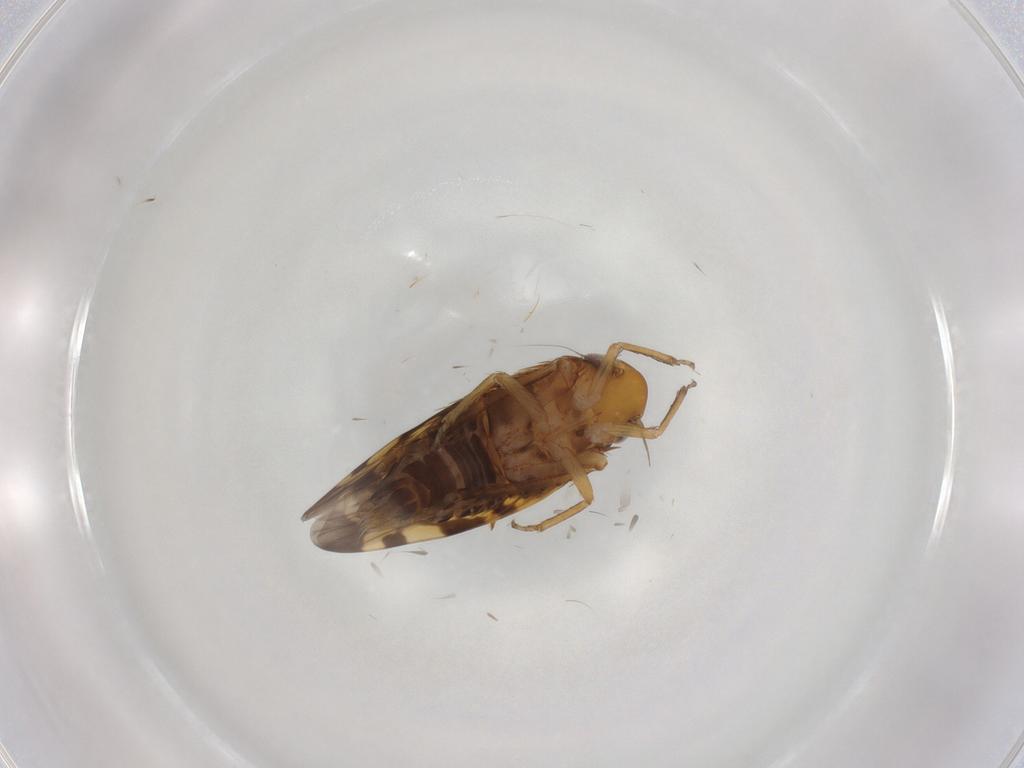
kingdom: Animalia
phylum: Arthropoda
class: Insecta
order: Hemiptera
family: Cicadellidae
